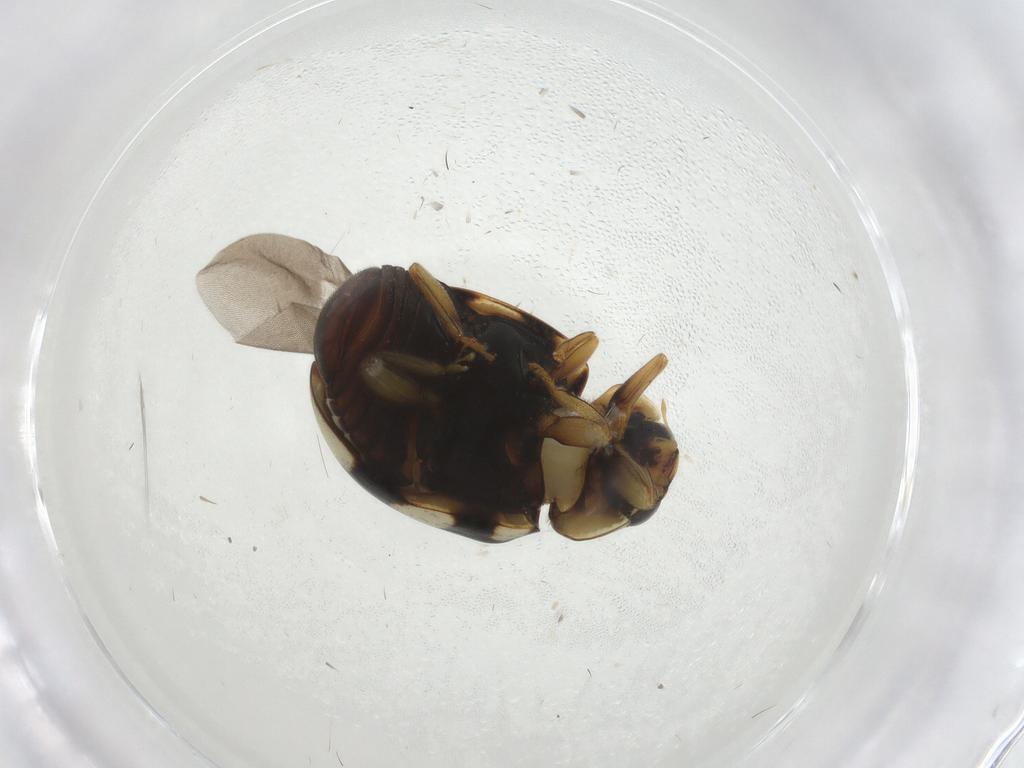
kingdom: Animalia
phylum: Arthropoda
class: Insecta
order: Coleoptera
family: Coccinellidae
